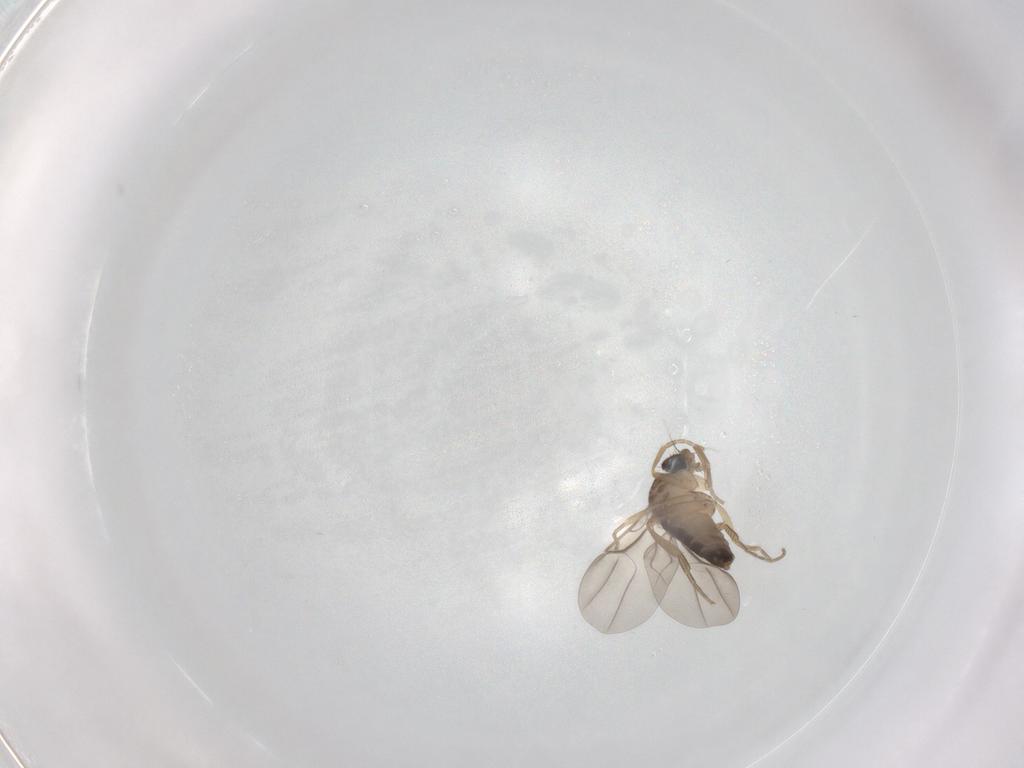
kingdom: Animalia
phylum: Arthropoda
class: Insecta
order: Diptera
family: Phoridae
